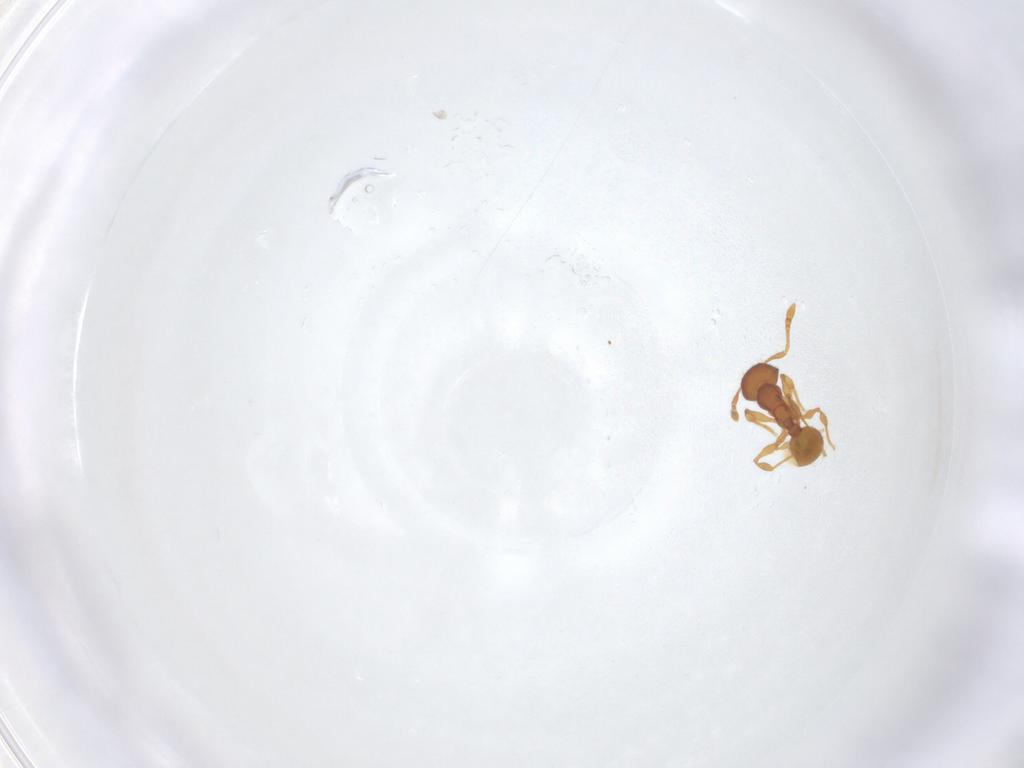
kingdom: Animalia
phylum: Arthropoda
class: Insecta
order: Hymenoptera
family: Formicidae
